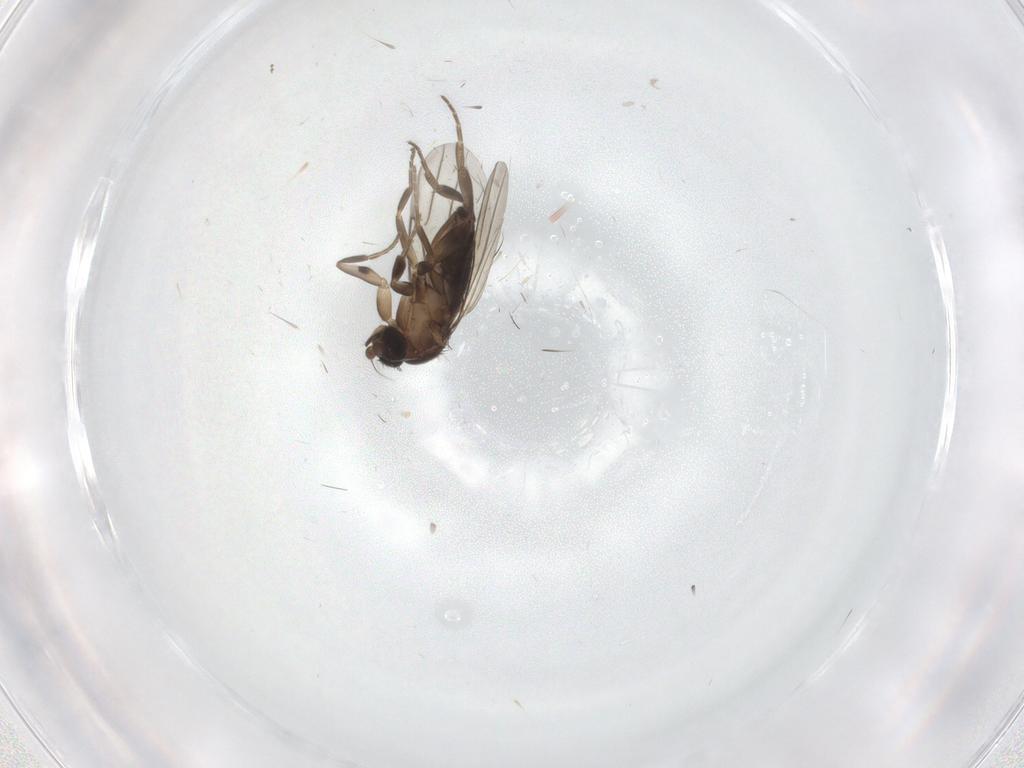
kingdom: Animalia
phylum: Arthropoda
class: Insecta
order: Diptera
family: Phoridae
